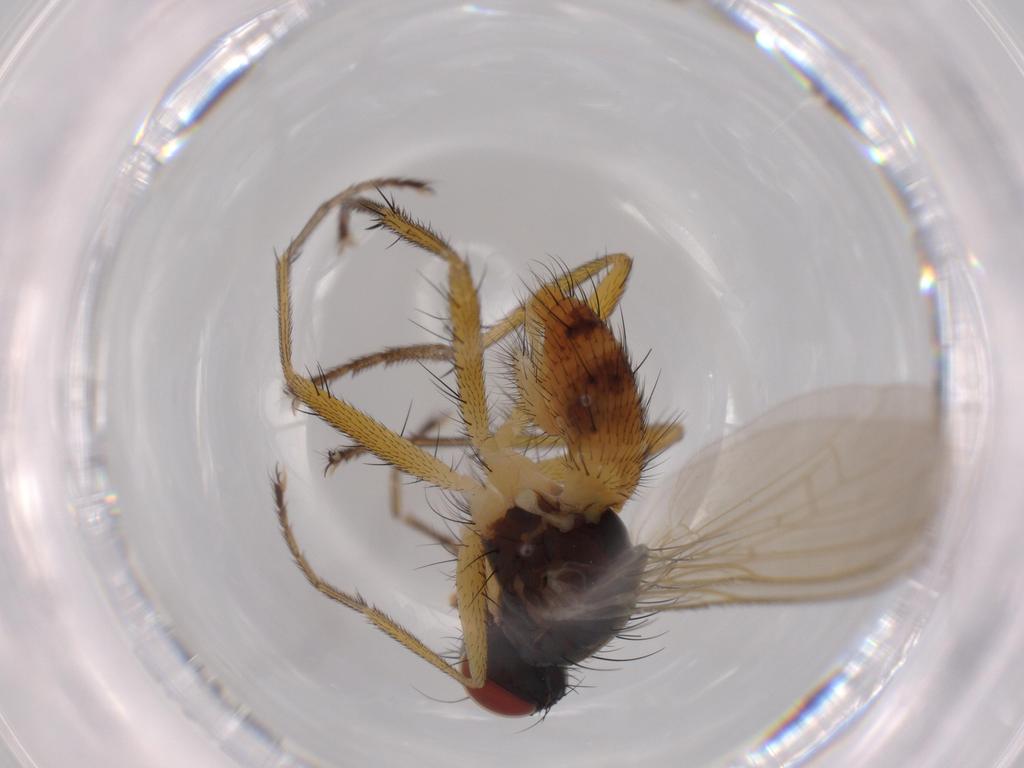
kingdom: Animalia
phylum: Arthropoda
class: Insecta
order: Diptera
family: Muscidae
